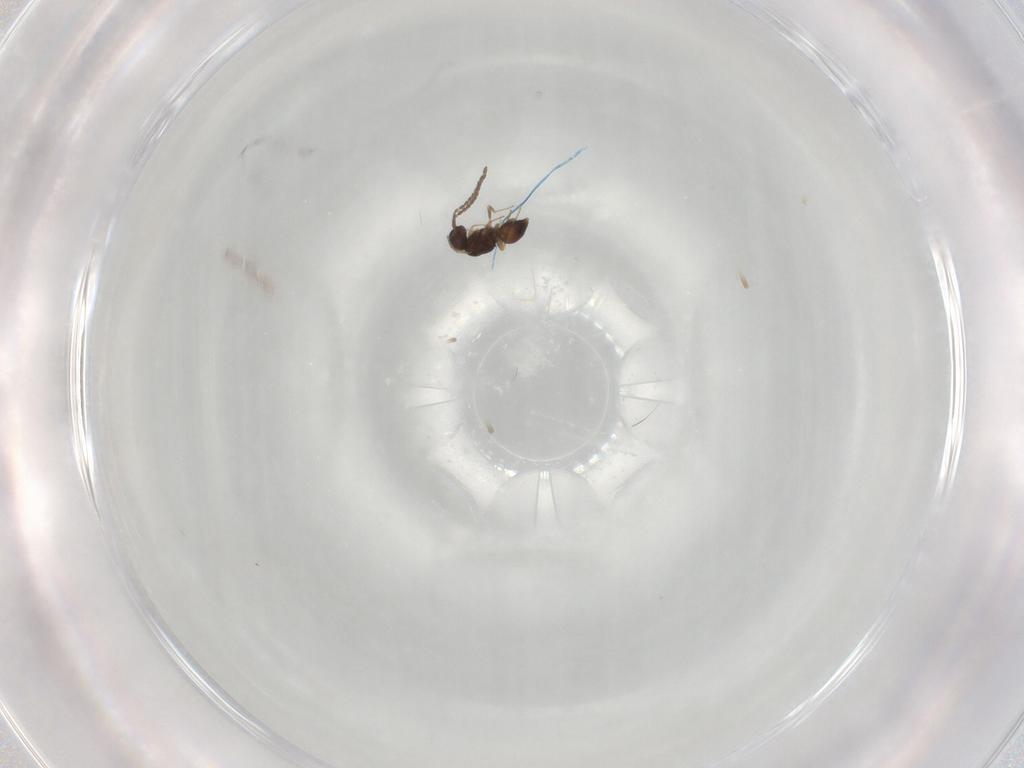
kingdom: Animalia
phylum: Arthropoda
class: Insecta
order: Hymenoptera
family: Ceraphronidae
